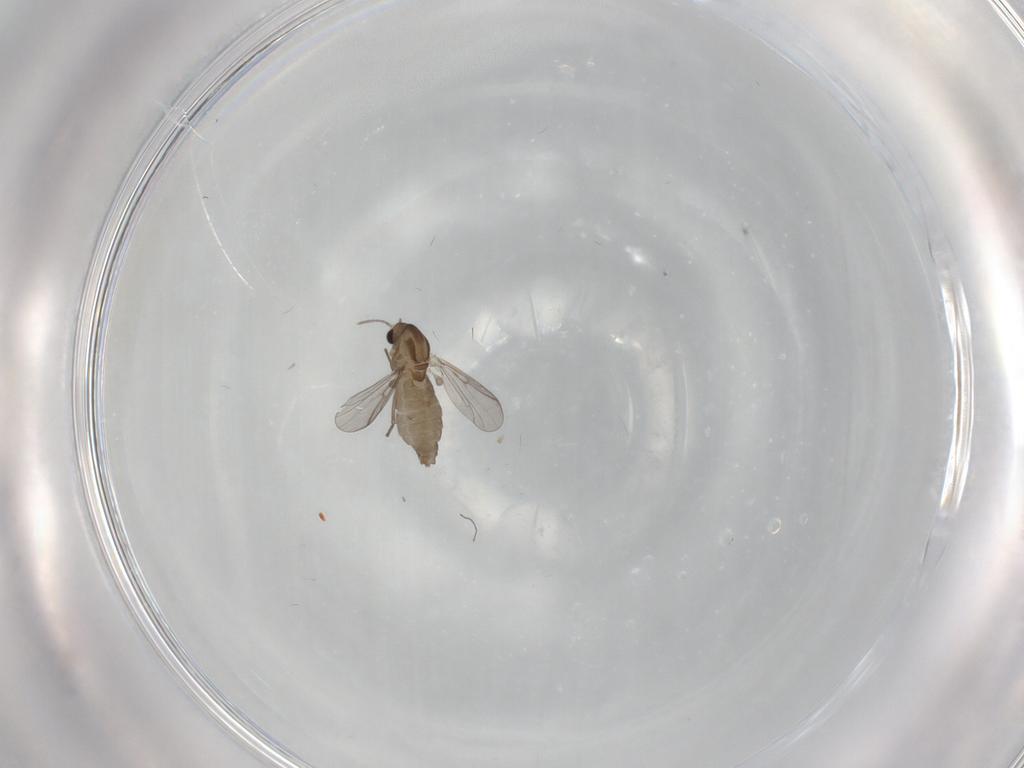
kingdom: Animalia
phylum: Arthropoda
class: Insecta
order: Diptera
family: Chironomidae
